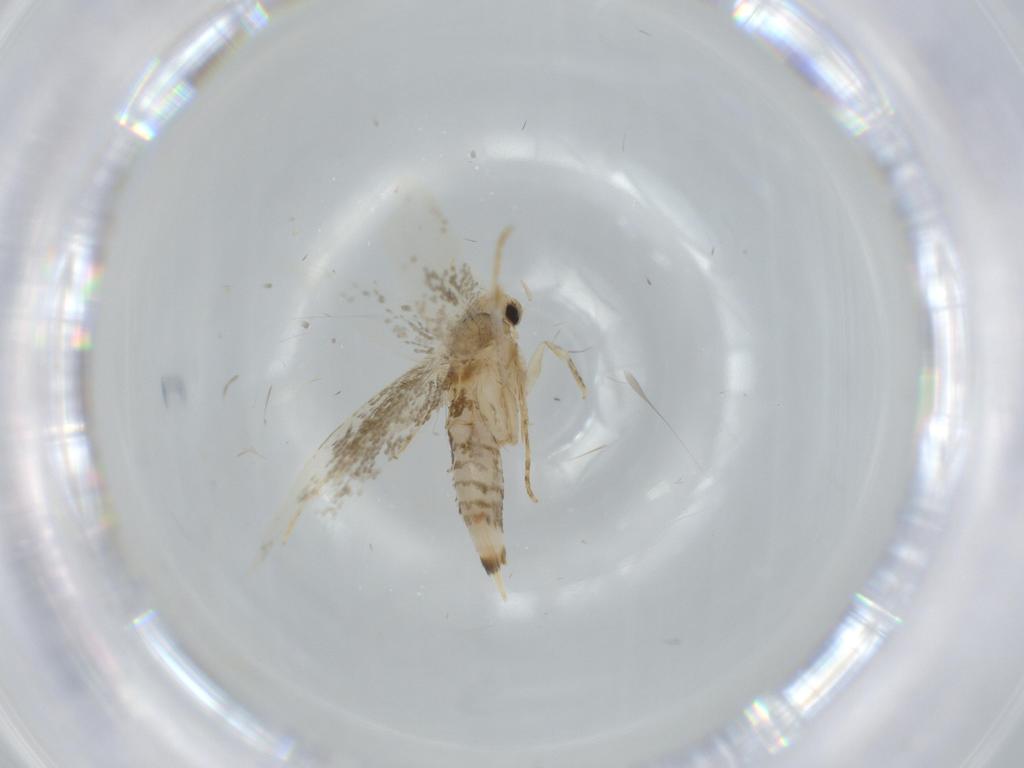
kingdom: Animalia
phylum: Arthropoda
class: Insecta
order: Lepidoptera
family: Tineidae
